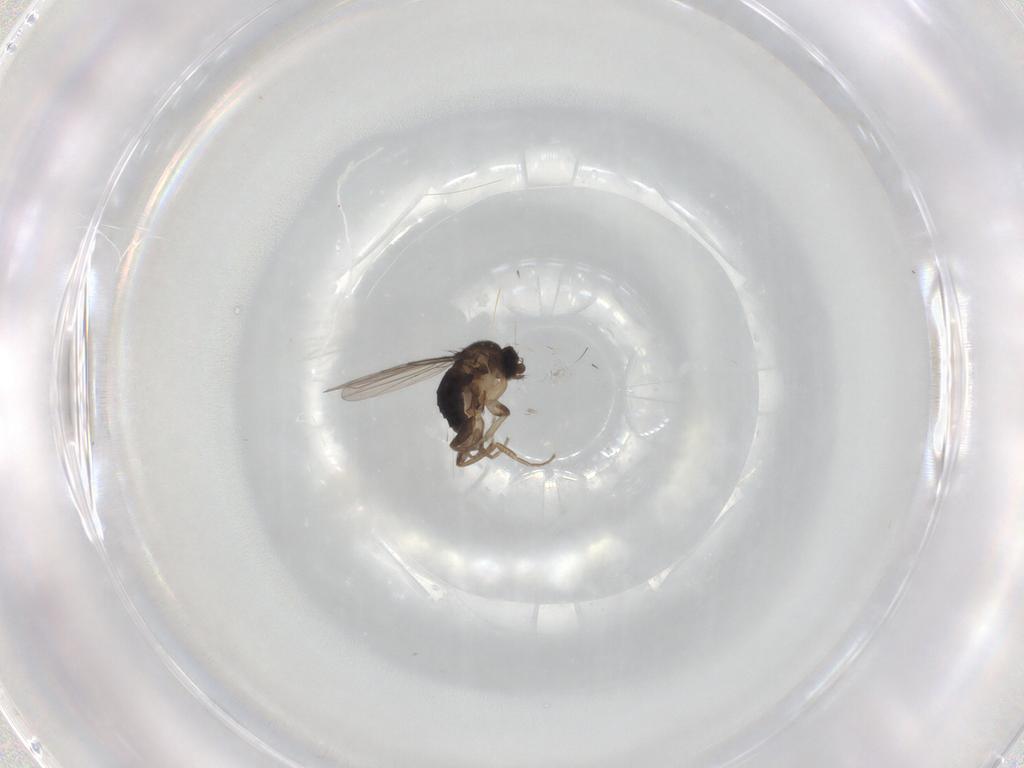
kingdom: Animalia
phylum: Arthropoda
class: Insecta
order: Diptera
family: Phoridae
